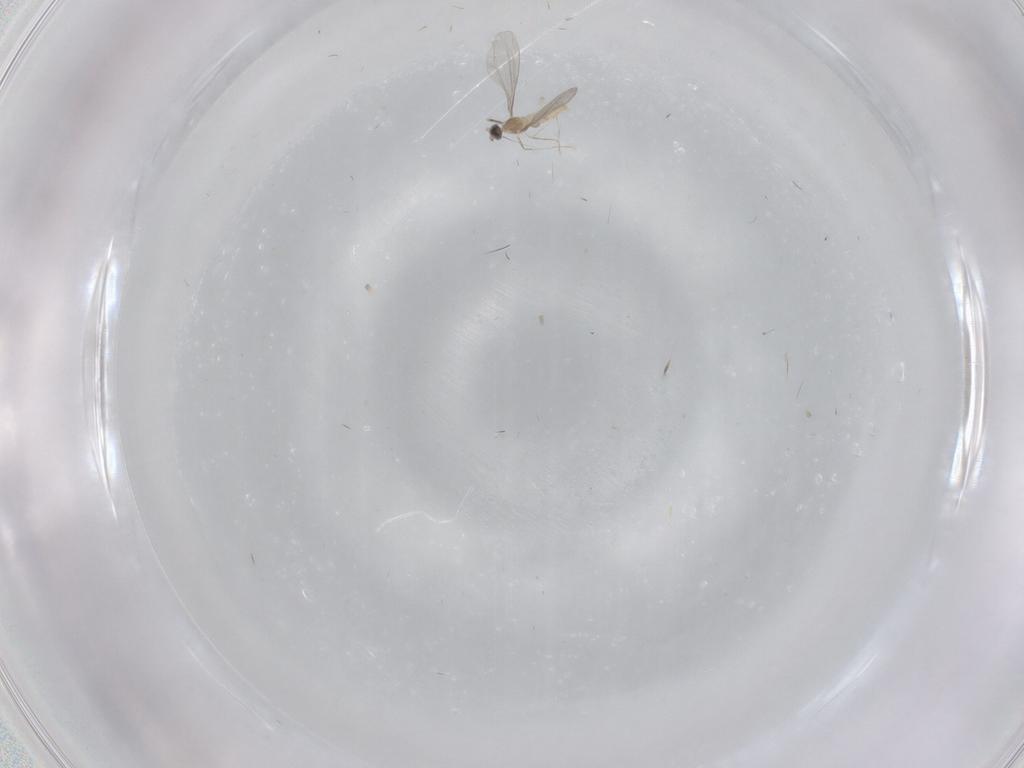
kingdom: Animalia
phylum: Arthropoda
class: Insecta
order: Diptera
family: Cecidomyiidae
